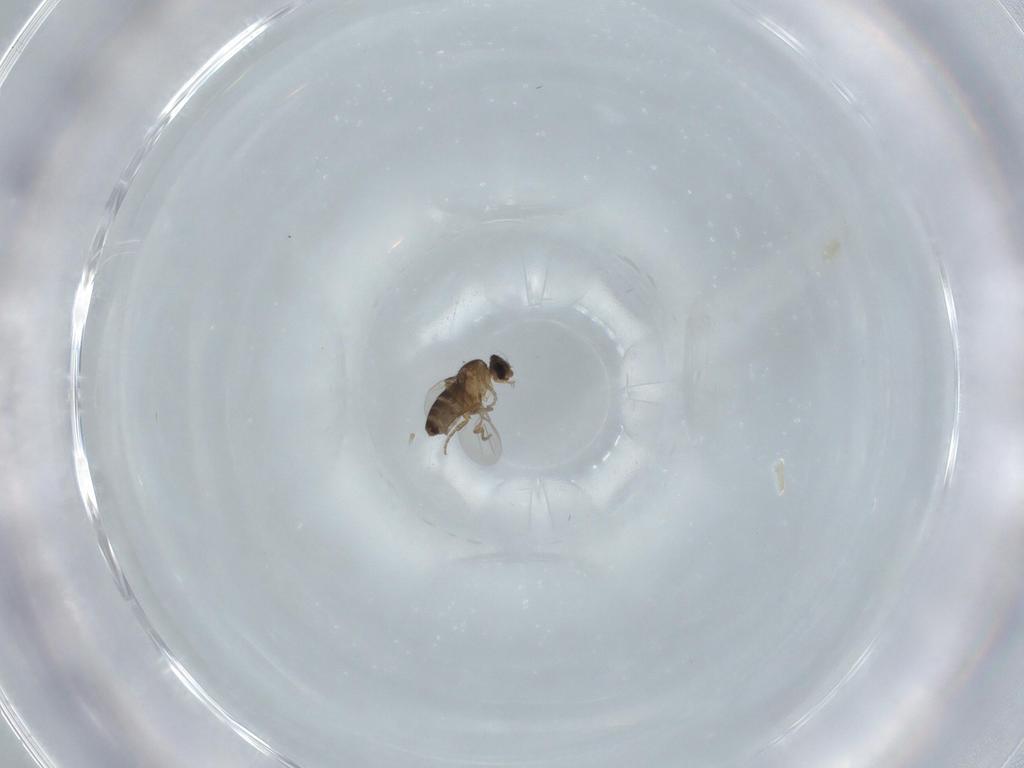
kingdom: Animalia
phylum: Arthropoda
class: Insecta
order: Diptera
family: Phoridae
